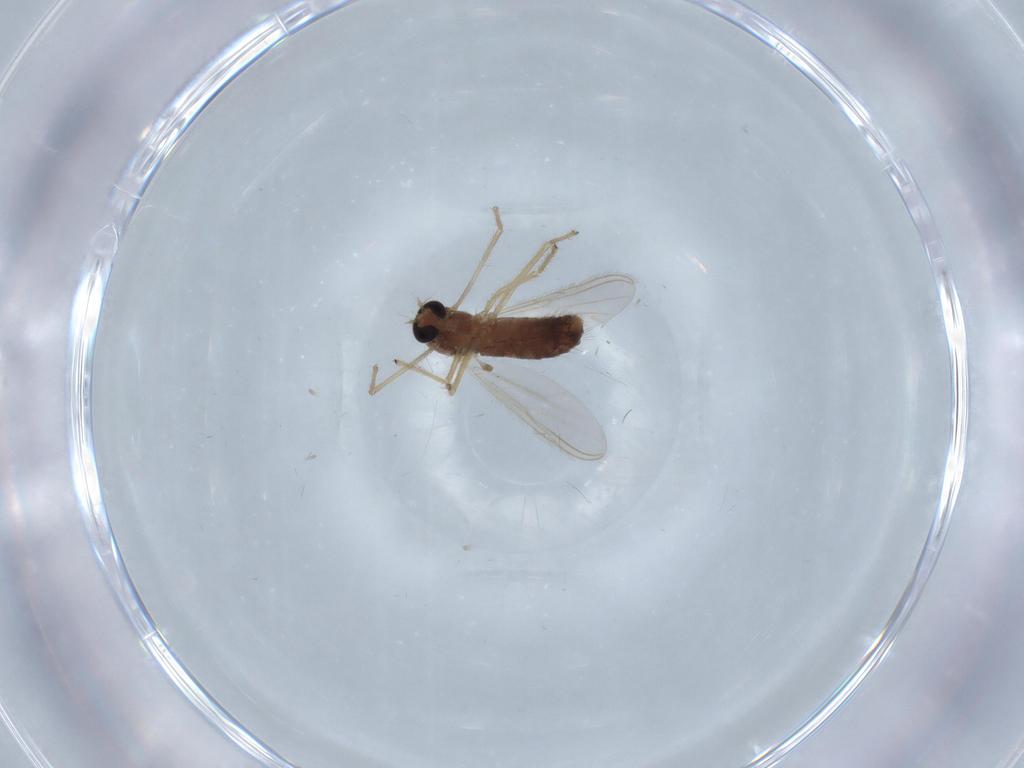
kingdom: Animalia
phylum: Arthropoda
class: Insecta
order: Diptera
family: Chironomidae
